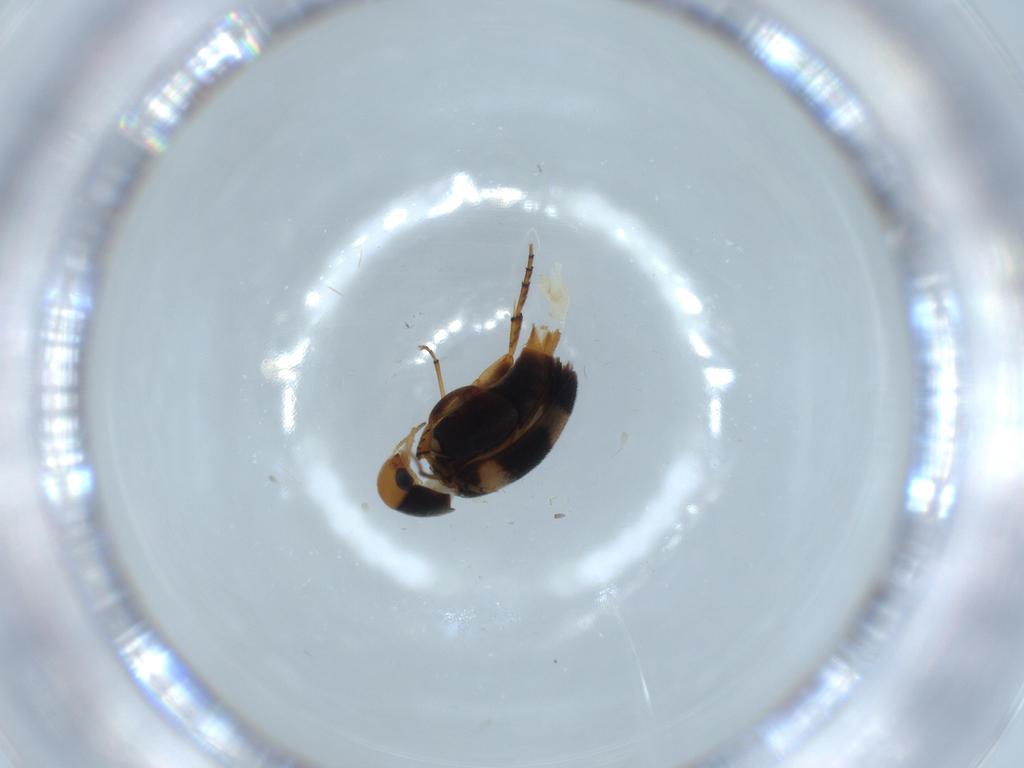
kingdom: Animalia
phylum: Arthropoda
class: Insecta
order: Coleoptera
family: Mordellidae
